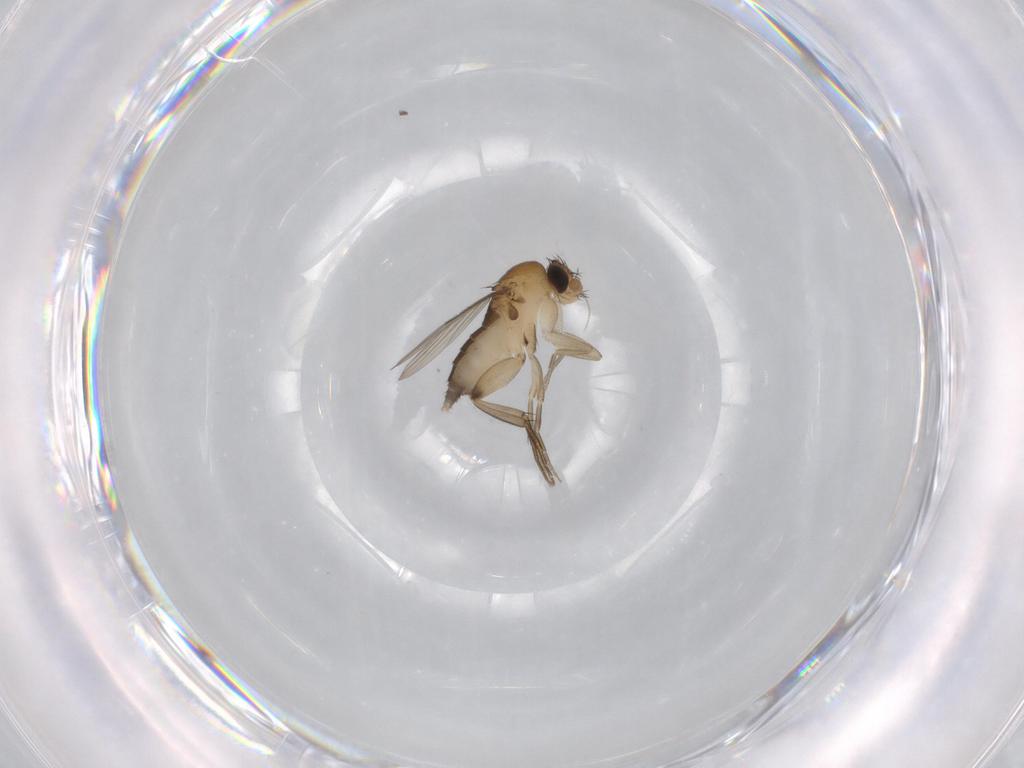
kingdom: Animalia
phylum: Arthropoda
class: Insecta
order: Diptera
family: Phoridae
